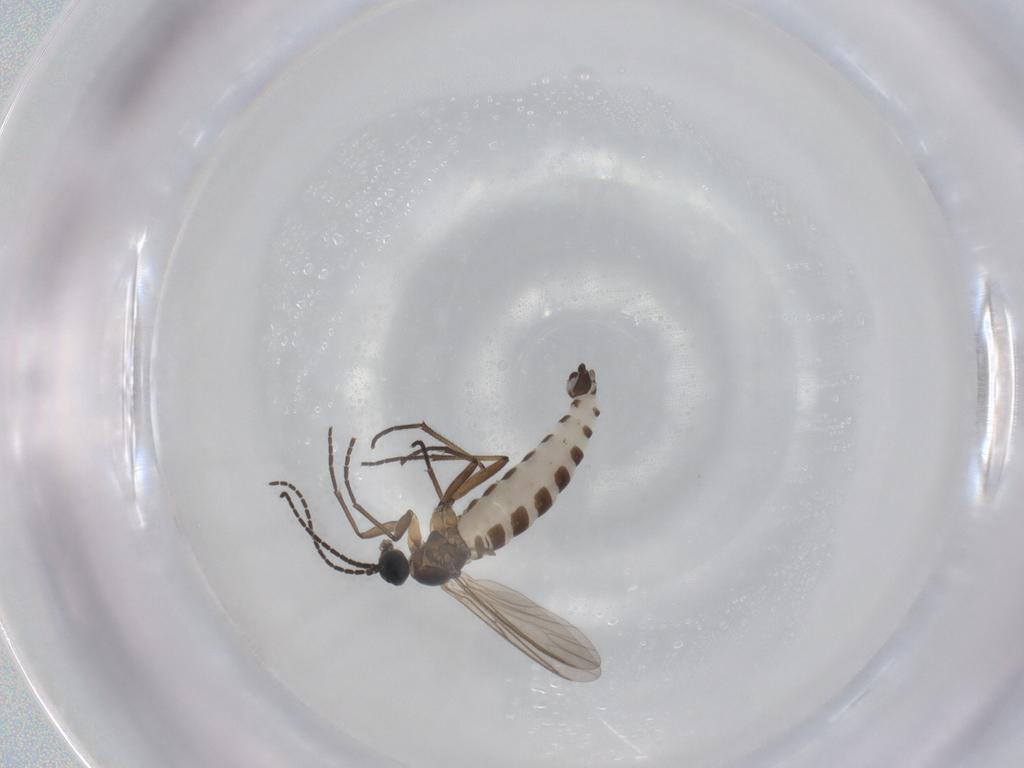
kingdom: Animalia
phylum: Arthropoda
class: Insecta
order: Diptera
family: Sciaridae
